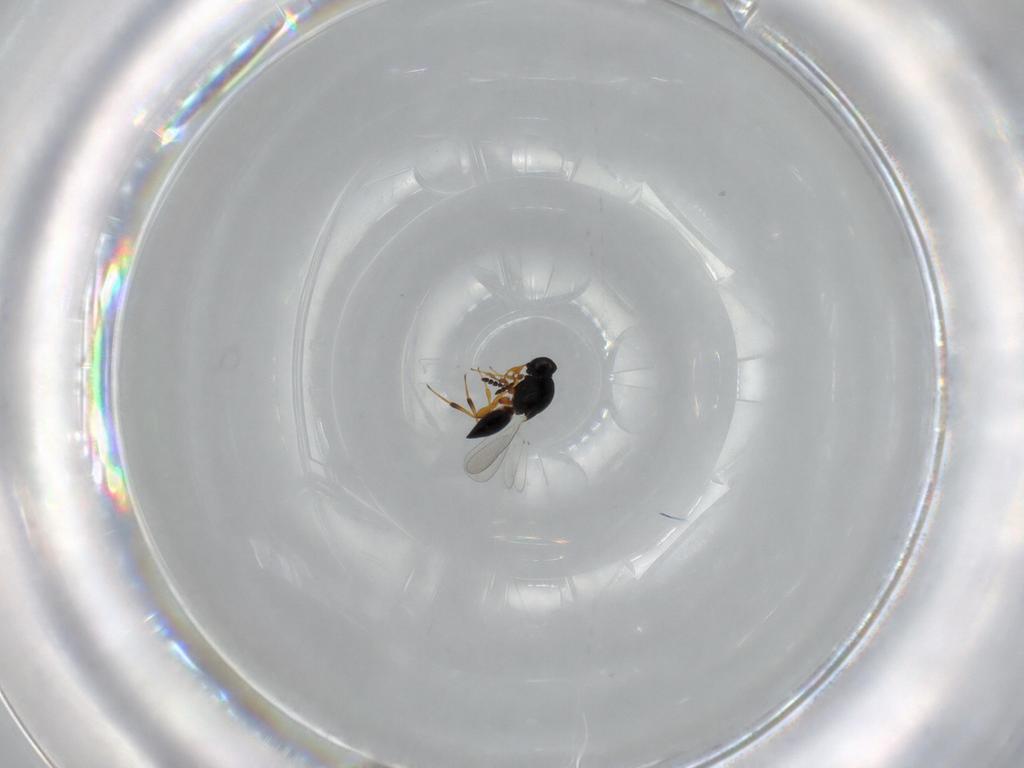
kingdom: Animalia
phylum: Arthropoda
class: Insecta
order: Hymenoptera
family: Platygastridae
